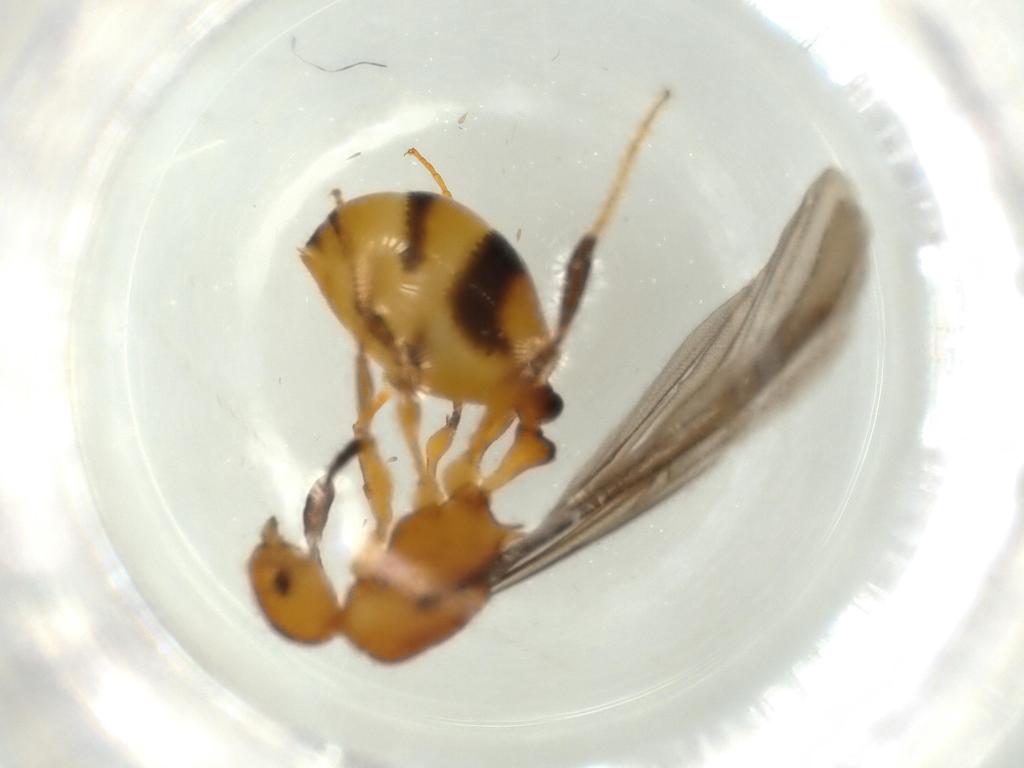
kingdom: Animalia
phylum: Arthropoda
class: Insecta
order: Hymenoptera
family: Formicidae
